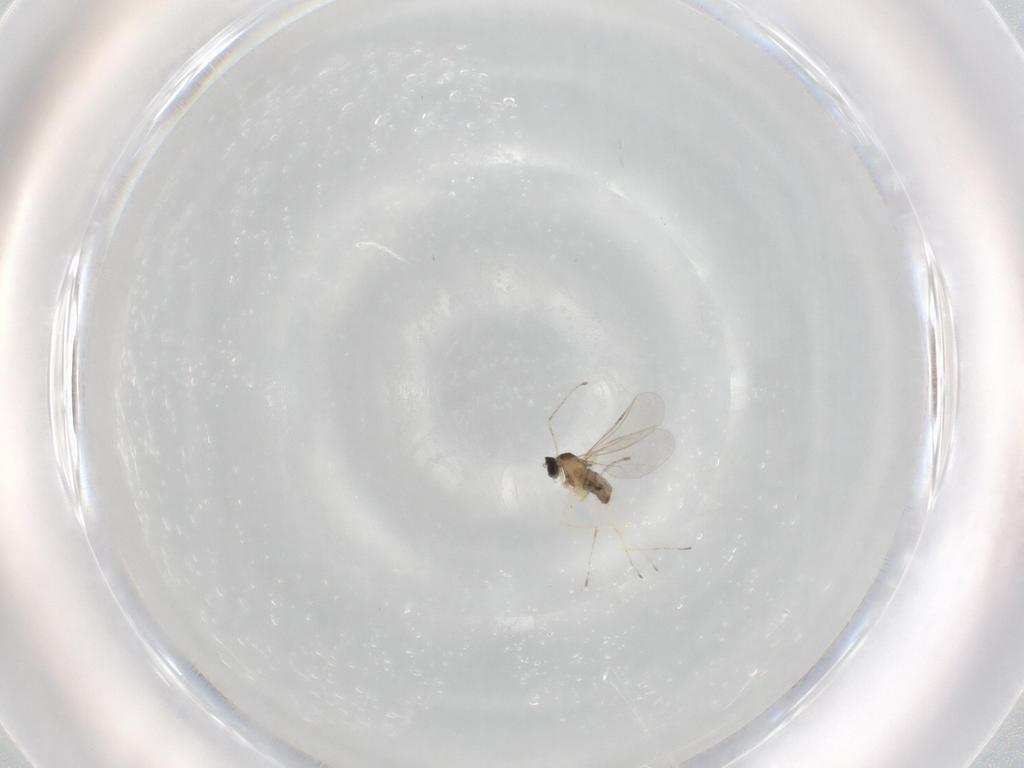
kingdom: Animalia
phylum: Arthropoda
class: Insecta
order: Diptera
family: Cecidomyiidae
